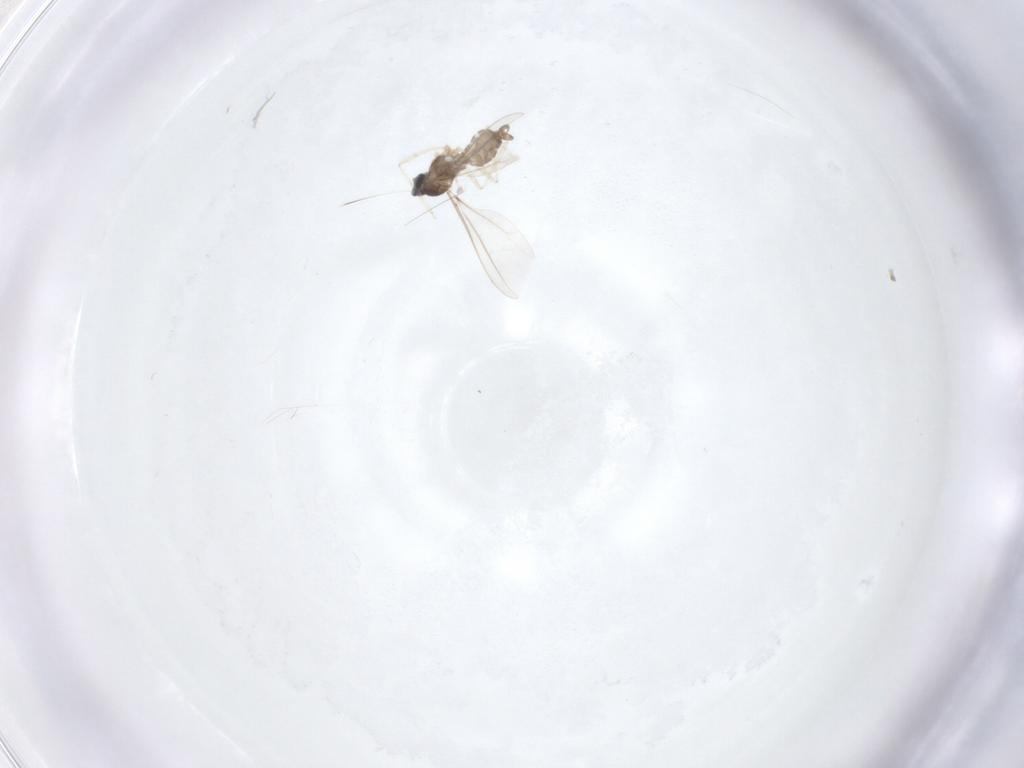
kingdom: Animalia
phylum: Arthropoda
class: Insecta
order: Diptera
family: Cecidomyiidae
